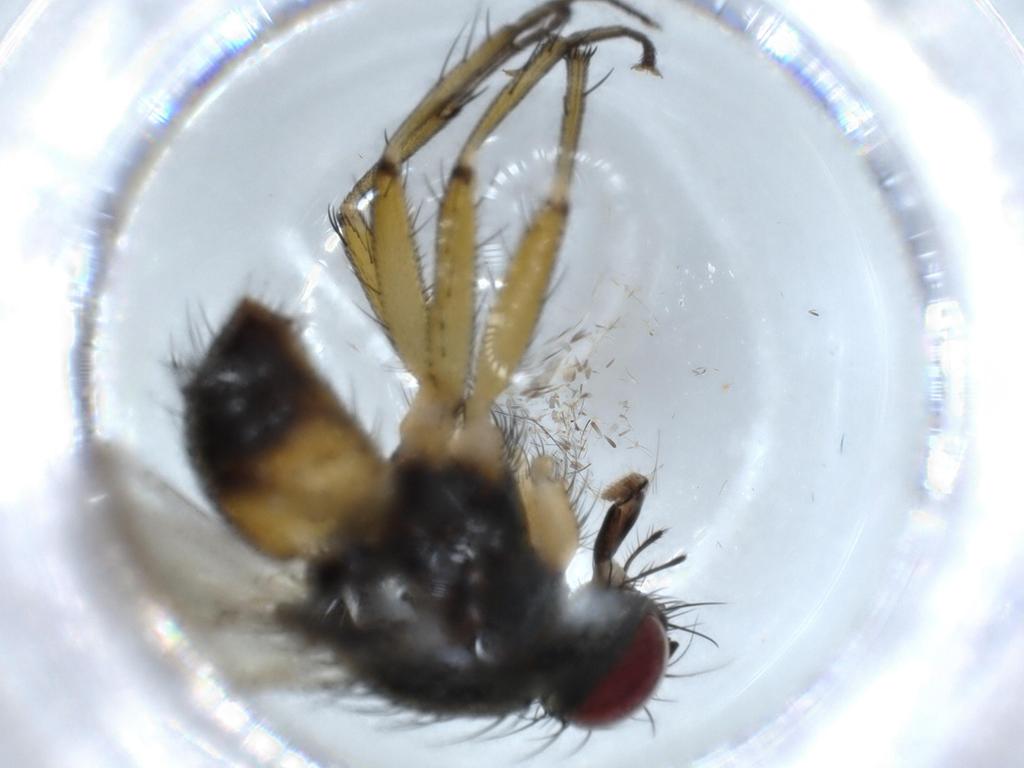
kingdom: Animalia
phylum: Arthropoda
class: Insecta
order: Diptera
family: Muscidae
